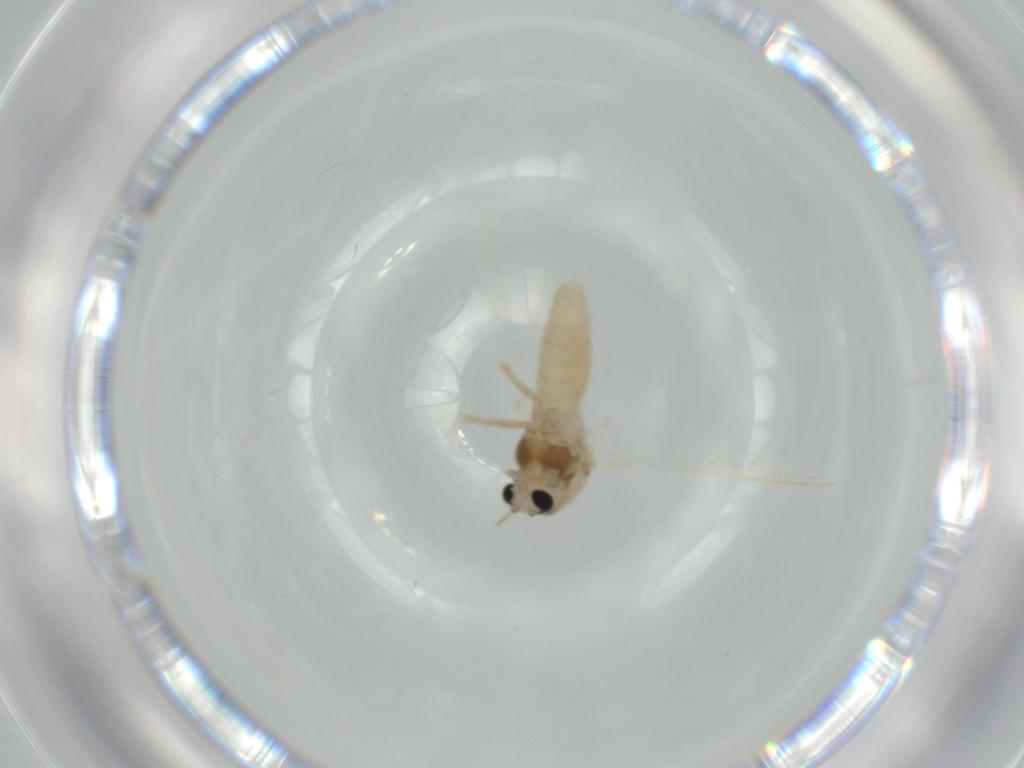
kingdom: Animalia
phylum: Arthropoda
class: Insecta
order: Diptera
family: Chironomidae
